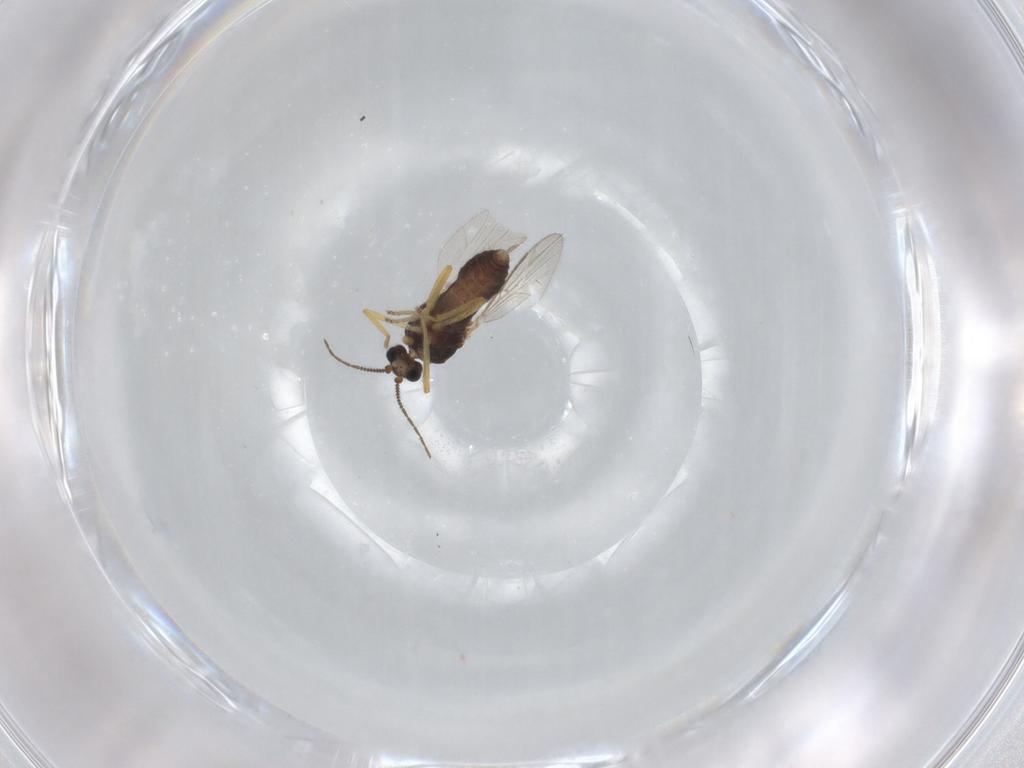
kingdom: Animalia
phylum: Arthropoda
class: Insecta
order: Diptera
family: Ceratopogonidae
